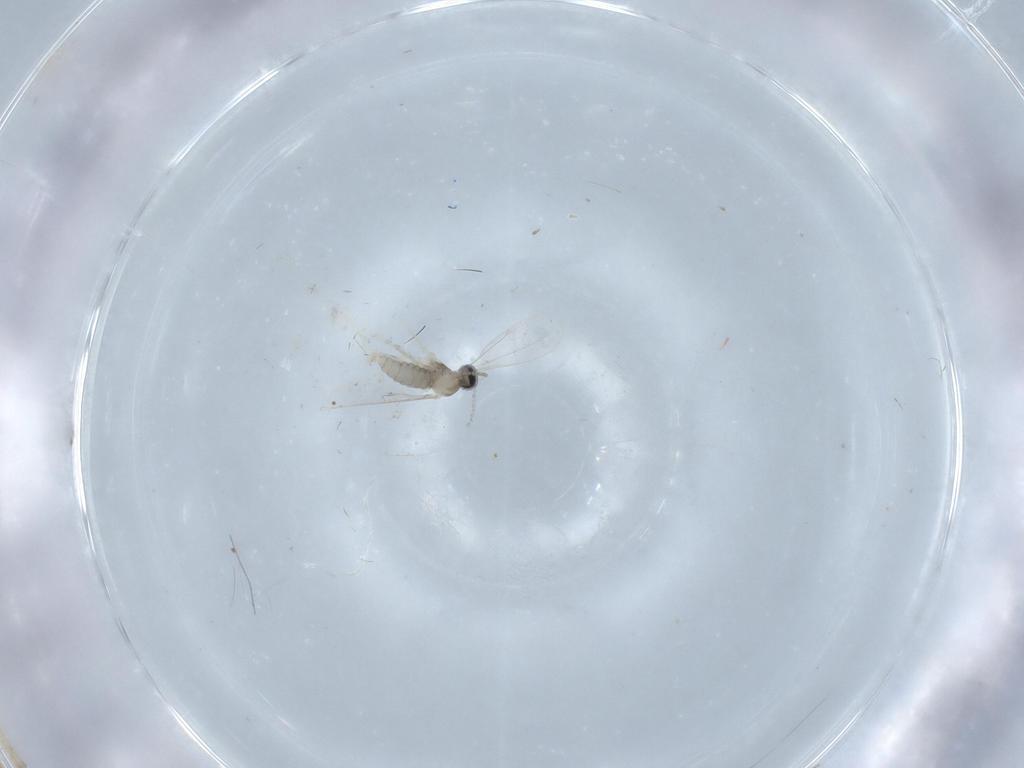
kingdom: Animalia
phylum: Arthropoda
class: Insecta
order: Diptera
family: Cecidomyiidae
